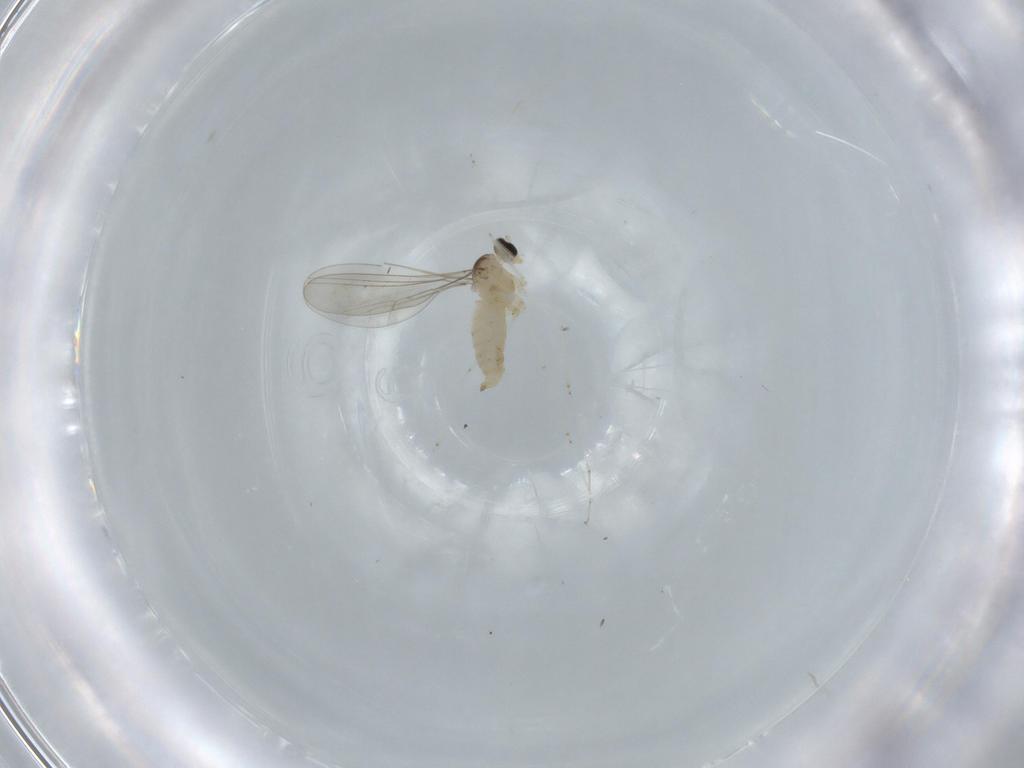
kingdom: Animalia
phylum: Arthropoda
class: Insecta
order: Diptera
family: Cecidomyiidae
